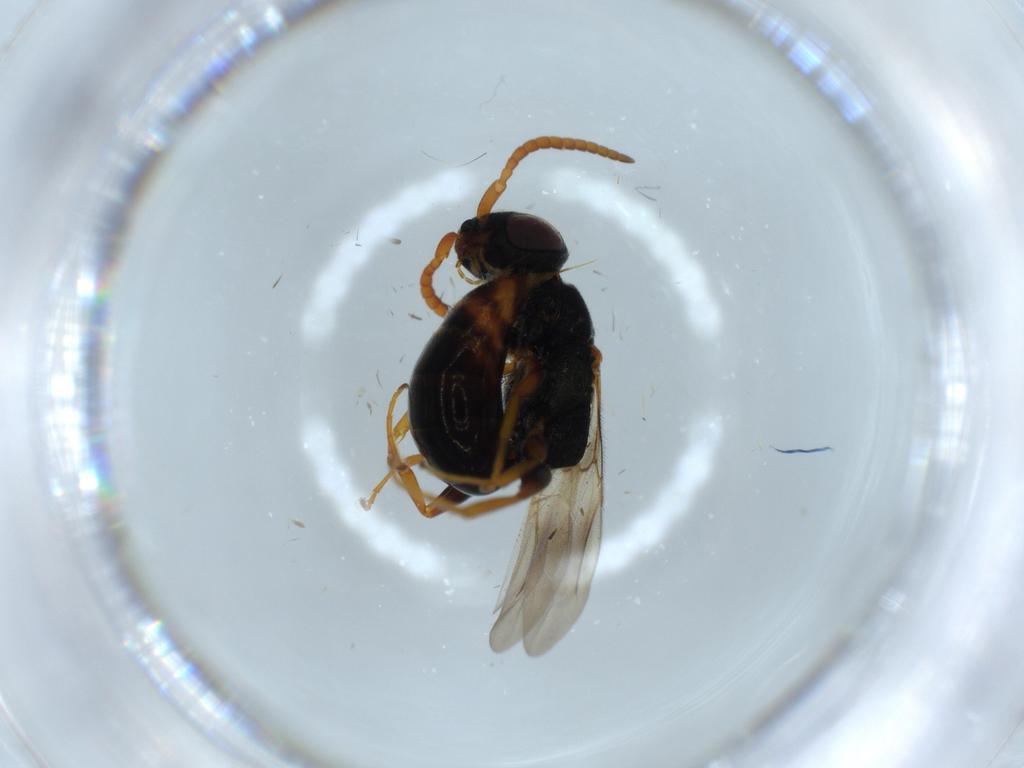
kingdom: Animalia
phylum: Arthropoda
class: Insecta
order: Hymenoptera
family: Bethylidae
